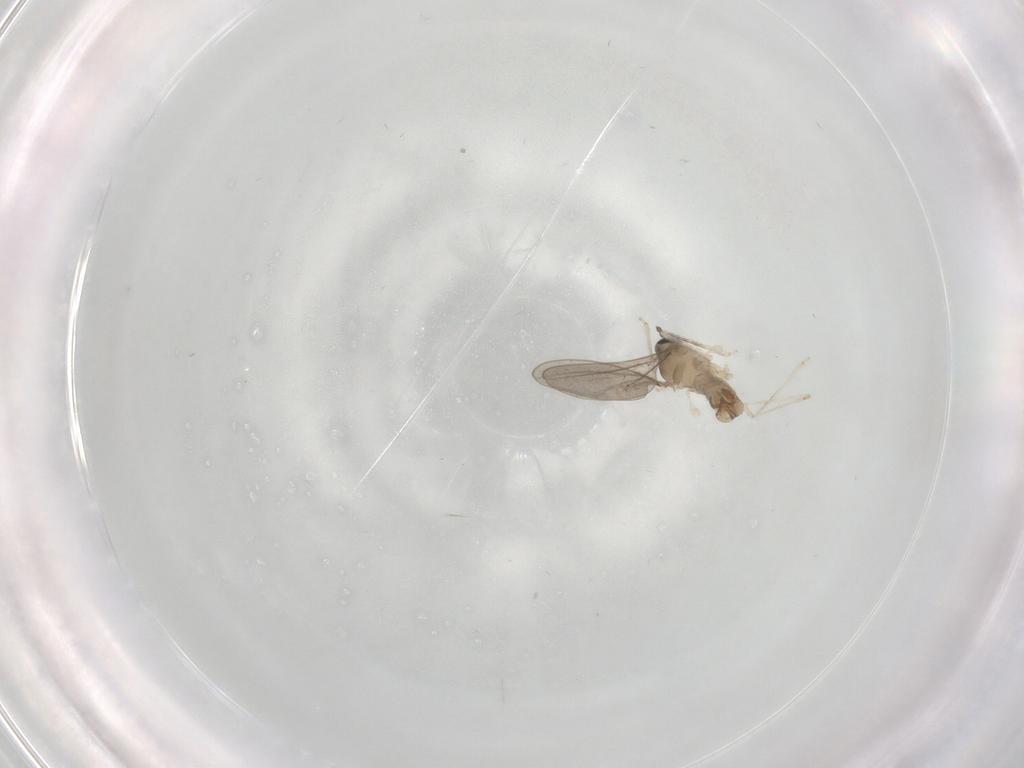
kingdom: Animalia
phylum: Arthropoda
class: Insecta
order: Diptera
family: Cecidomyiidae
